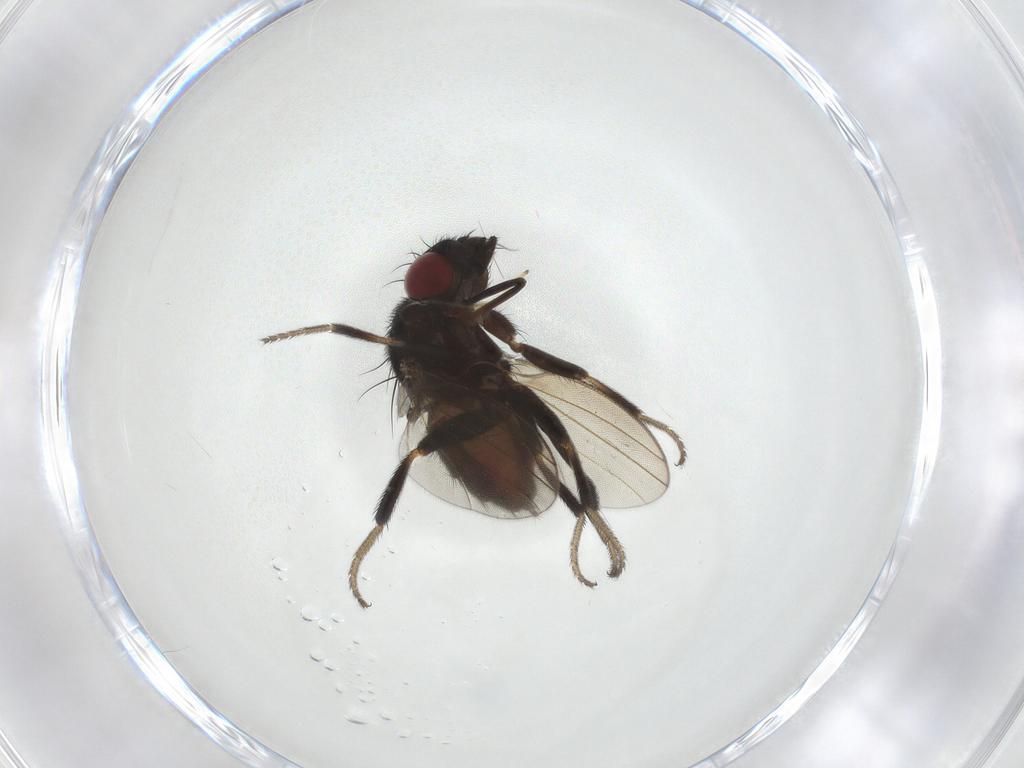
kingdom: Animalia
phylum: Arthropoda
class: Insecta
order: Diptera
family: Milichiidae
